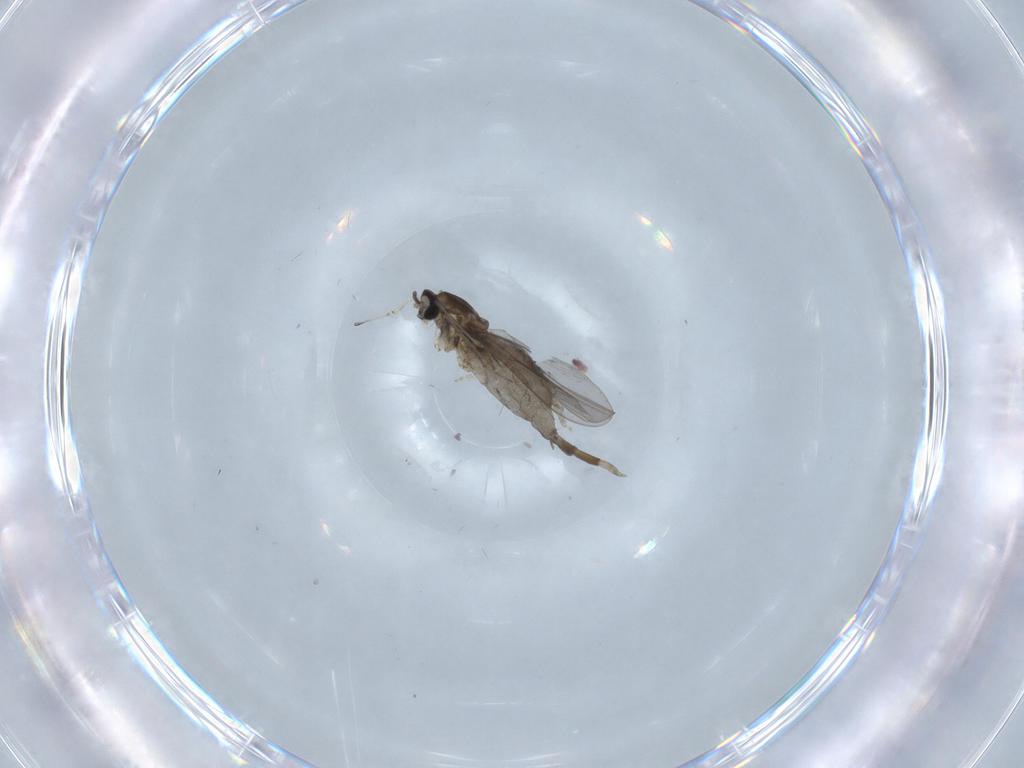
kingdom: Animalia
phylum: Arthropoda
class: Insecta
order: Diptera
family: Cecidomyiidae
